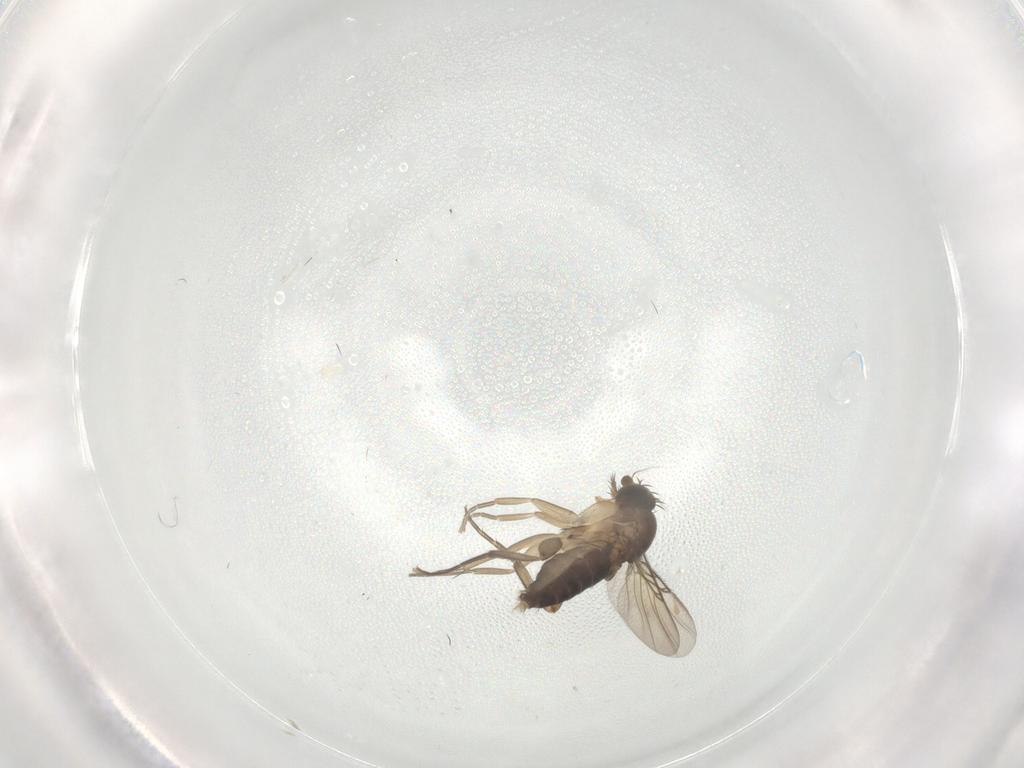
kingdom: Animalia
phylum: Arthropoda
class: Insecta
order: Diptera
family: Phoridae
